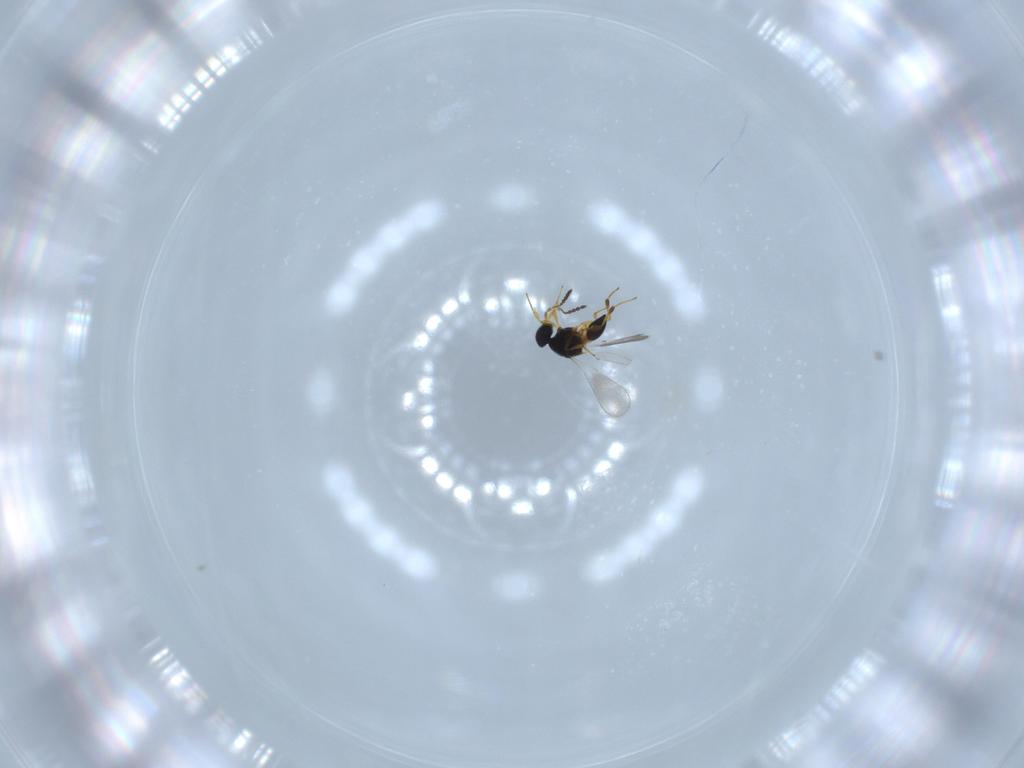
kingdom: Animalia
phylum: Arthropoda
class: Insecta
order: Hymenoptera
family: Platygastridae
